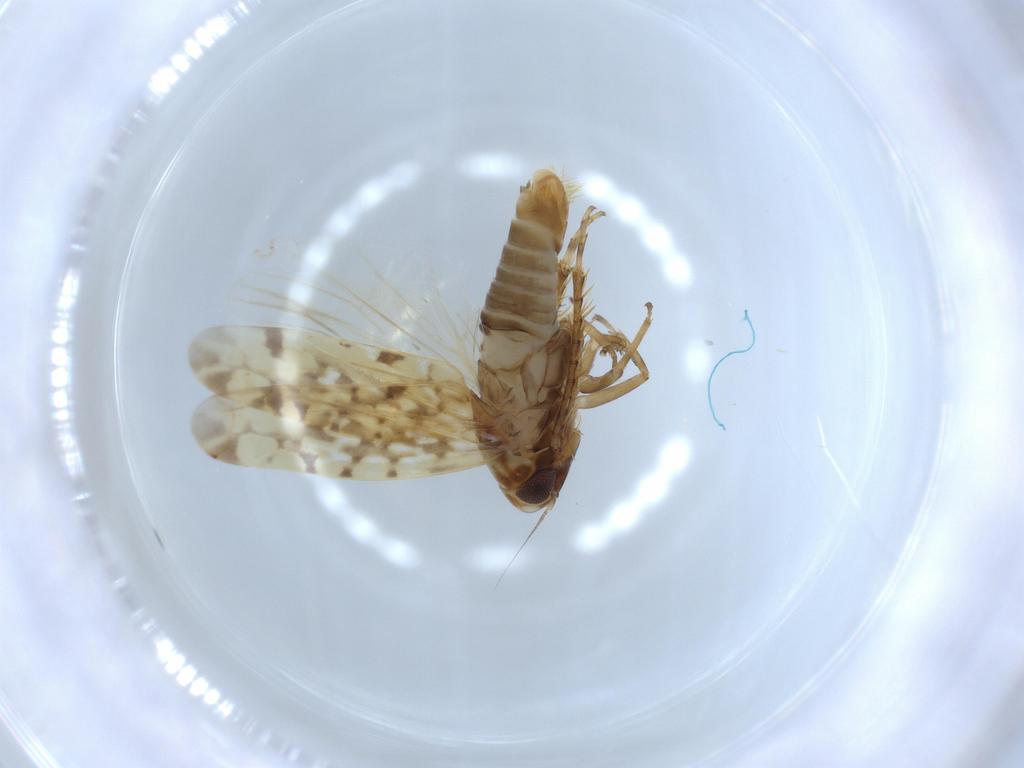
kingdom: Animalia
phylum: Arthropoda
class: Insecta
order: Hemiptera
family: Cicadellidae
